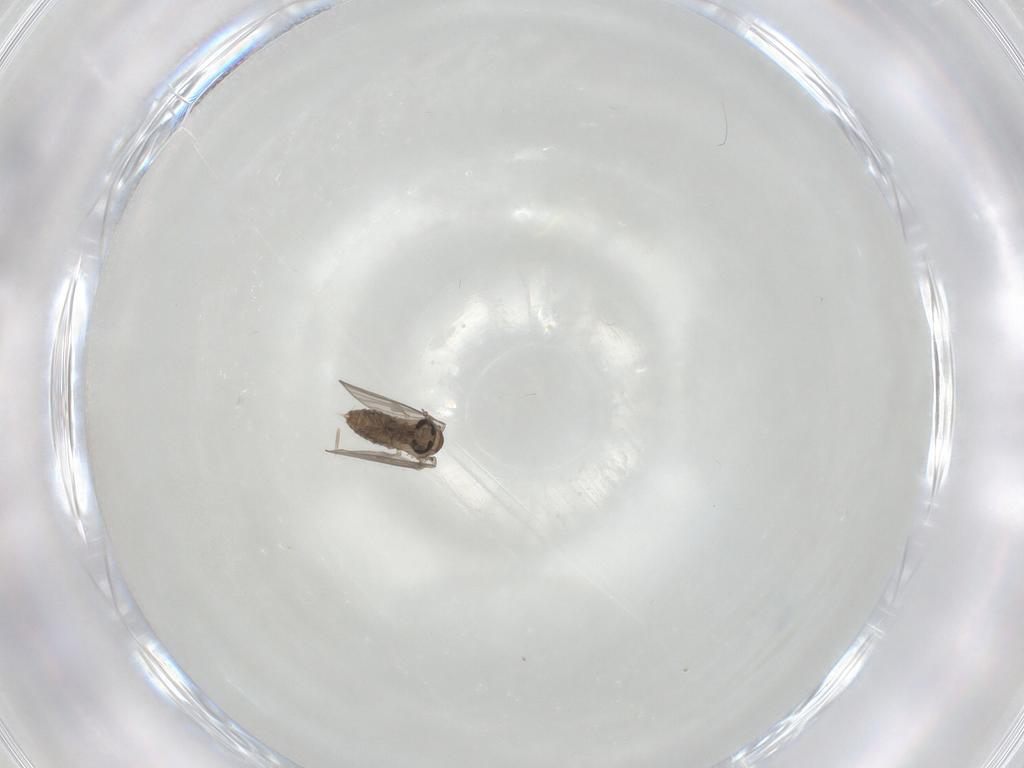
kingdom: Animalia
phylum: Arthropoda
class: Insecta
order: Diptera
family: Psychodidae
